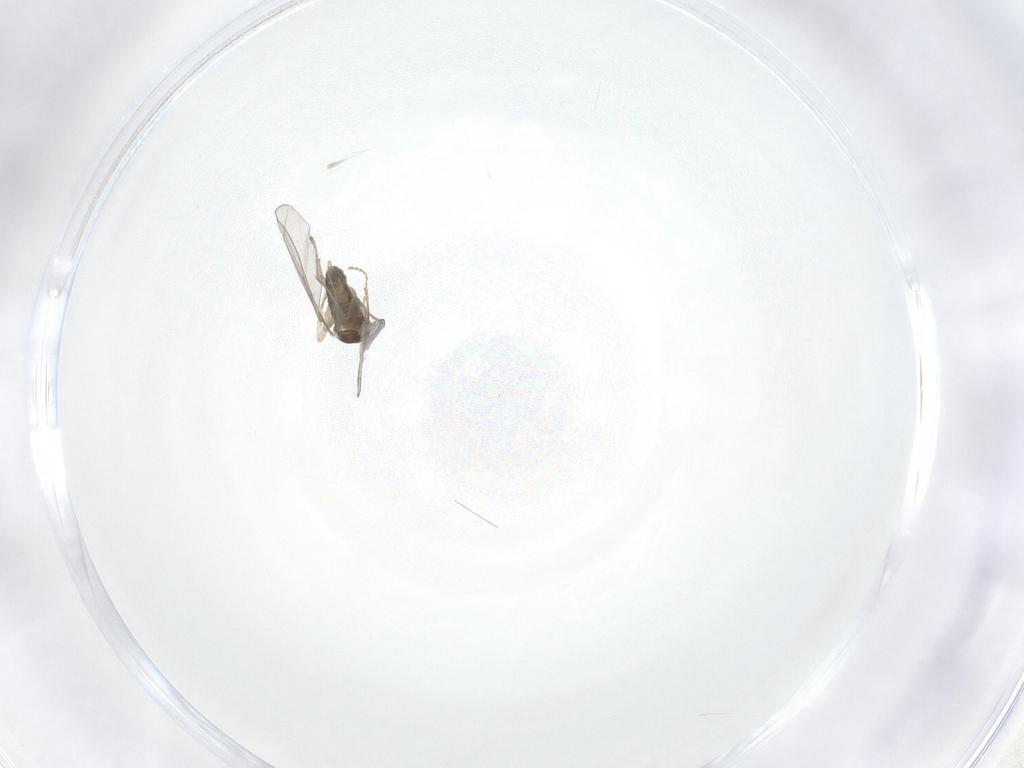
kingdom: Animalia
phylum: Arthropoda
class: Insecta
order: Diptera
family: Cecidomyiidae
